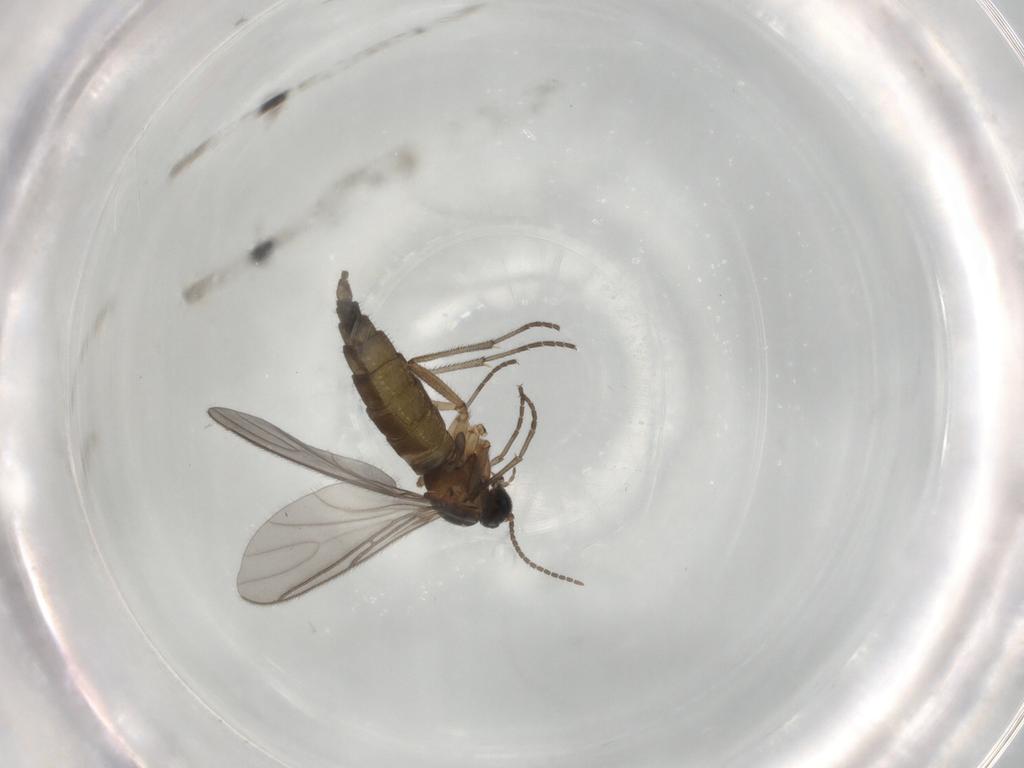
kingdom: Animalia
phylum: Arthropoda
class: Insecta
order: Diptera
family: Sciaridae
